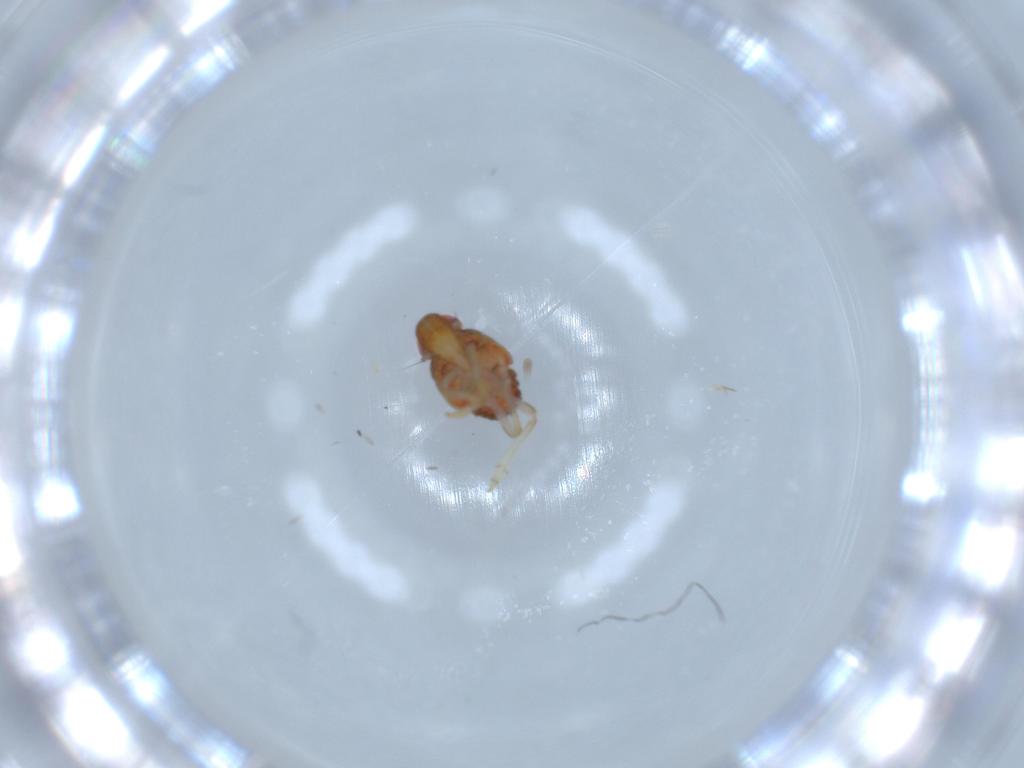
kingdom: Animalia
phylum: Arthropoda
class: Insecta
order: Hemiptera
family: Issidae
